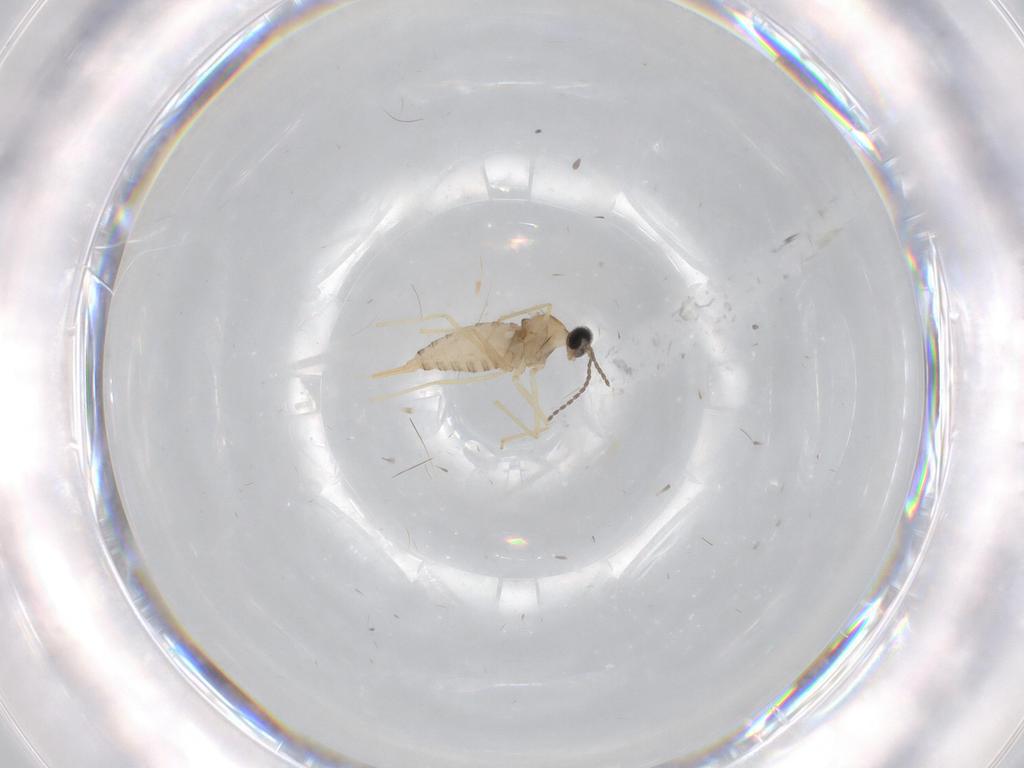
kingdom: Animalia
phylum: Arthropoda
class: Insecta
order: Diptera
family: Cecidomyiidae
